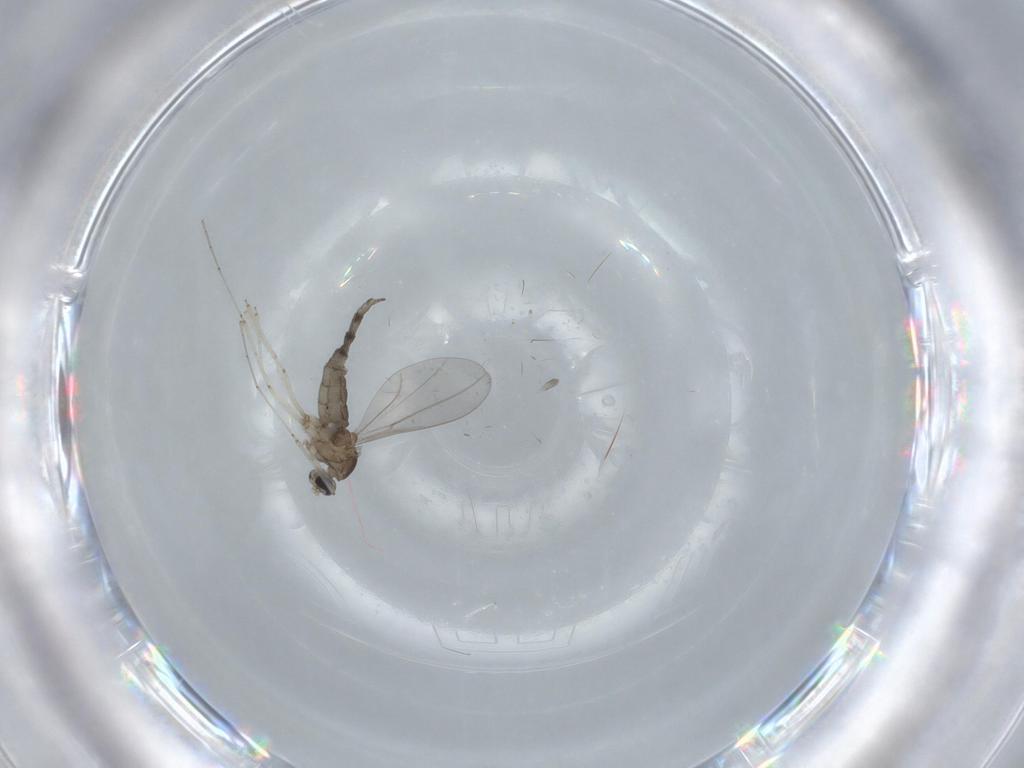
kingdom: Animalia
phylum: Arthropoda
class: Insecta
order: Diptera
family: Cecidomyiidae
